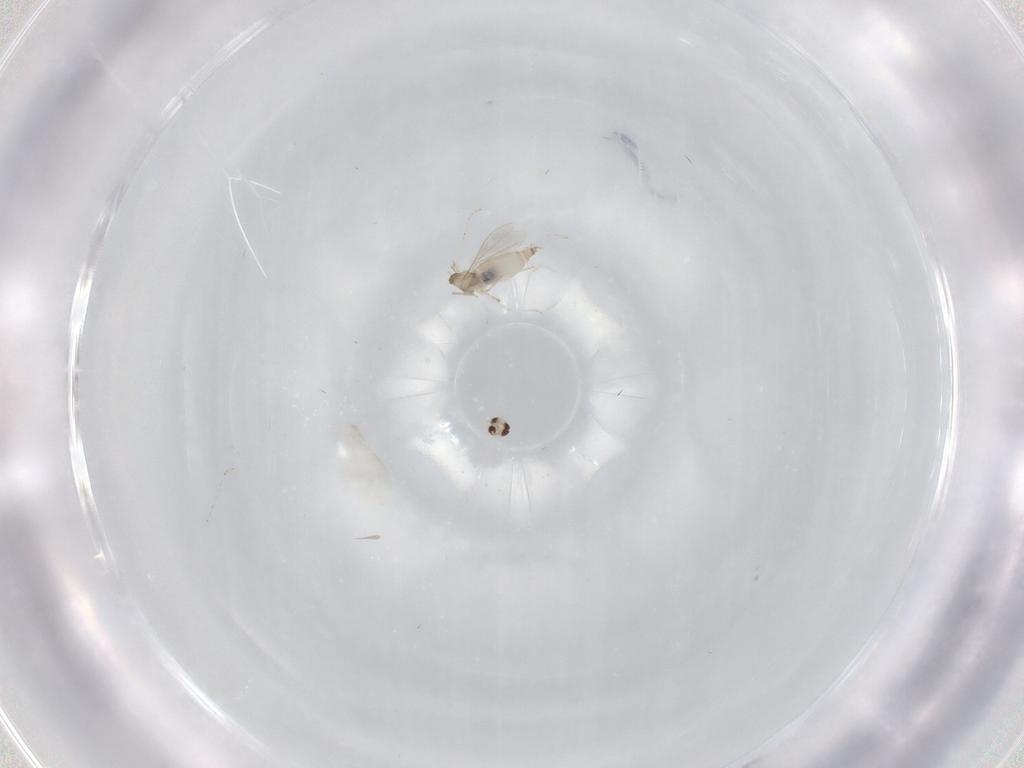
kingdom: Animalia
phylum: Arthropoda
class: Insecta
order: Diptera
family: Cecidomyiidae
